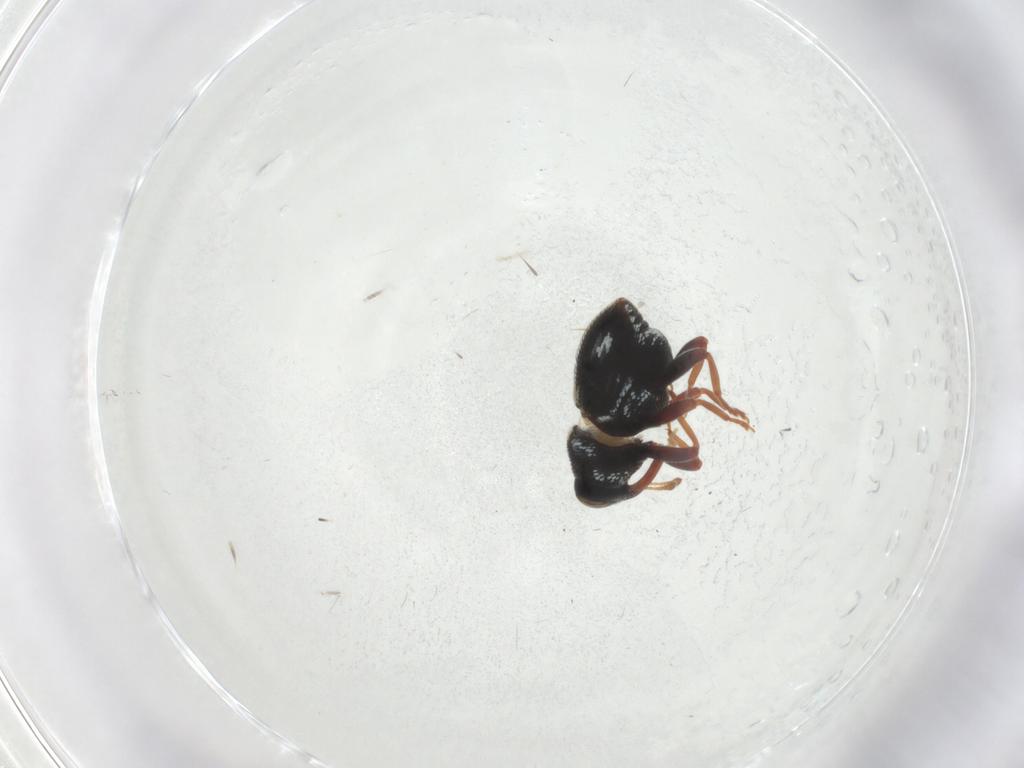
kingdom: Animalia
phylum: Arthropoda
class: Insecta
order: Coleoptera
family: Curculionidae
